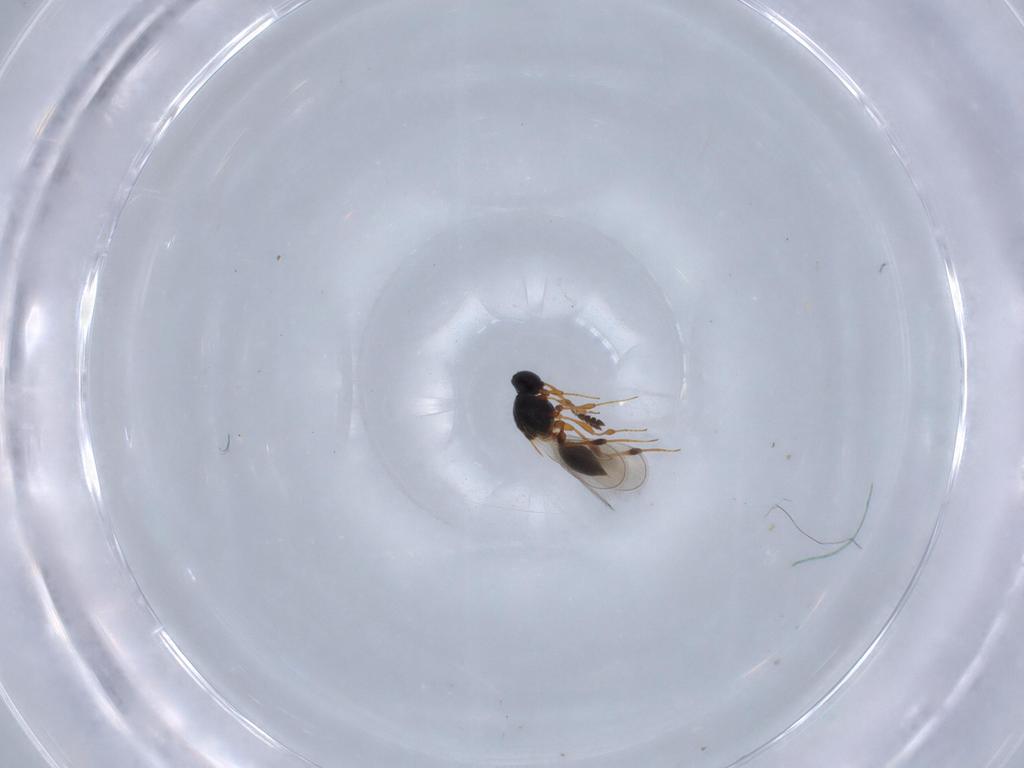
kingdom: Animalia
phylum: Arthropoda
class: Insecta
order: Hymenoptera
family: Platygastridae
